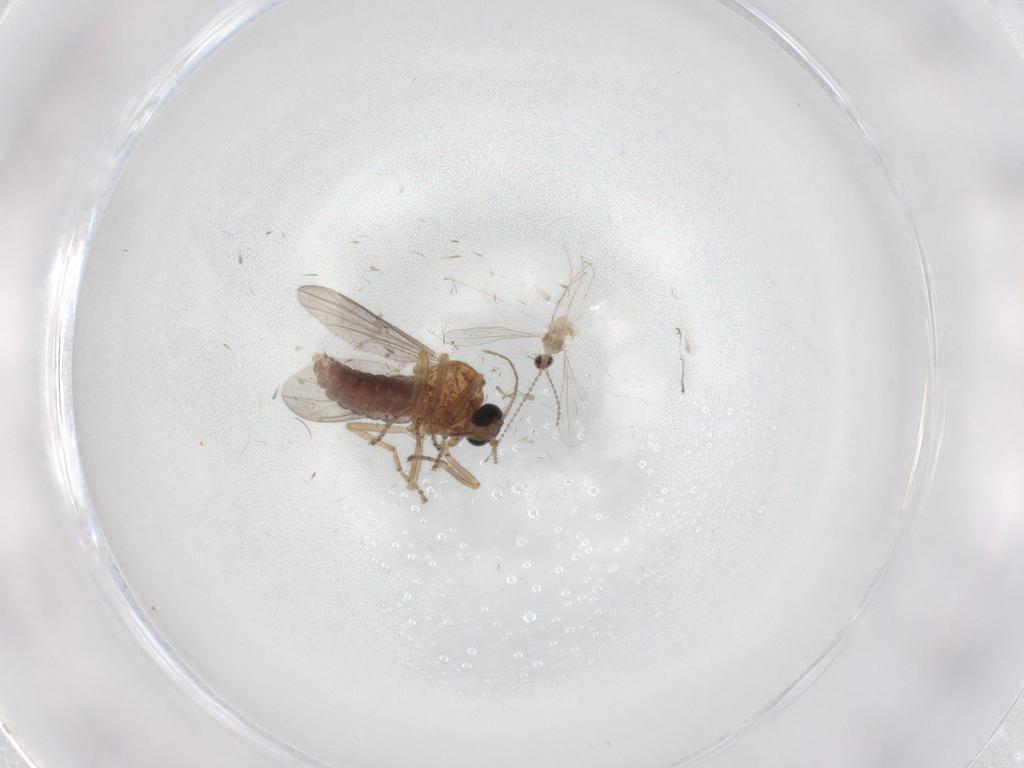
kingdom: Animalia
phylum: Arthropoda
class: Insecta
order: Diptera
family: Ceratopogonidae
